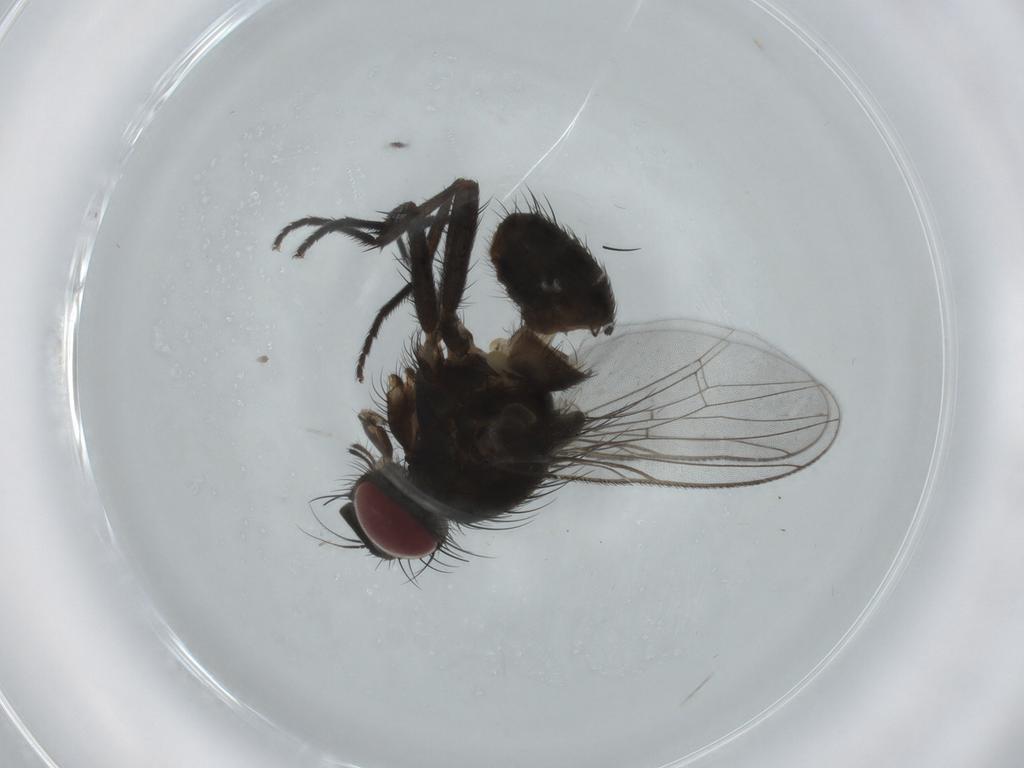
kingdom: Animalia
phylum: Arthropoda
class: Insecta
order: Diptera
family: Muscidae
